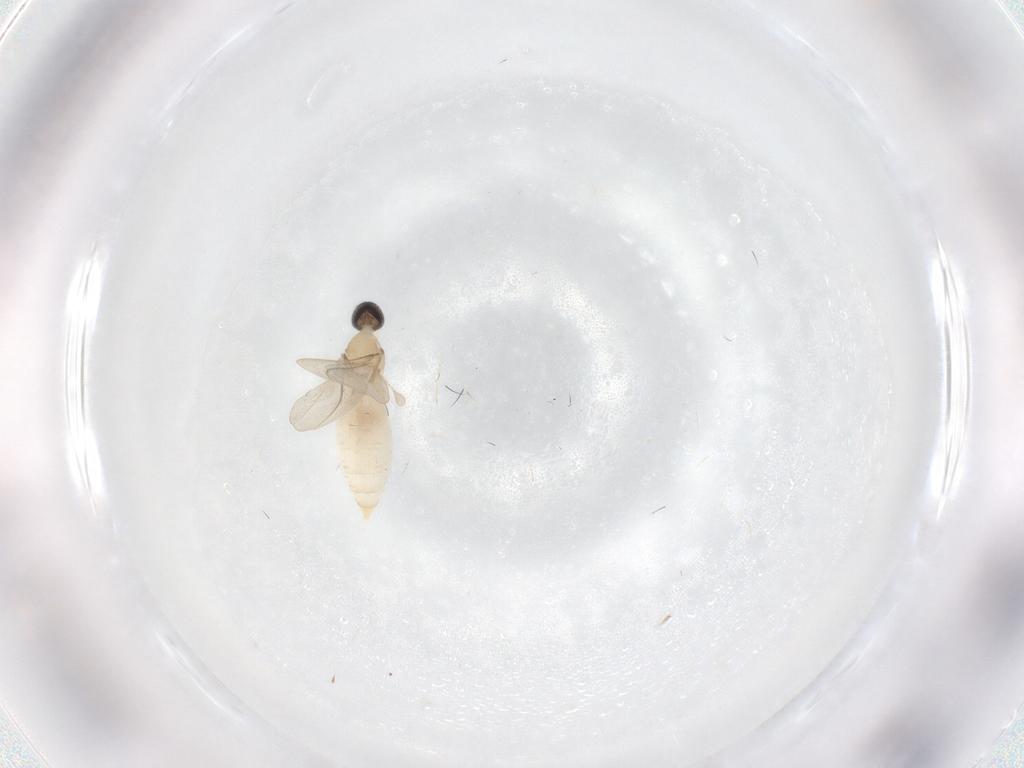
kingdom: Animalia
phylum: Arthropoda
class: Insecta
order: Diptera
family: Cecidomyiidae
